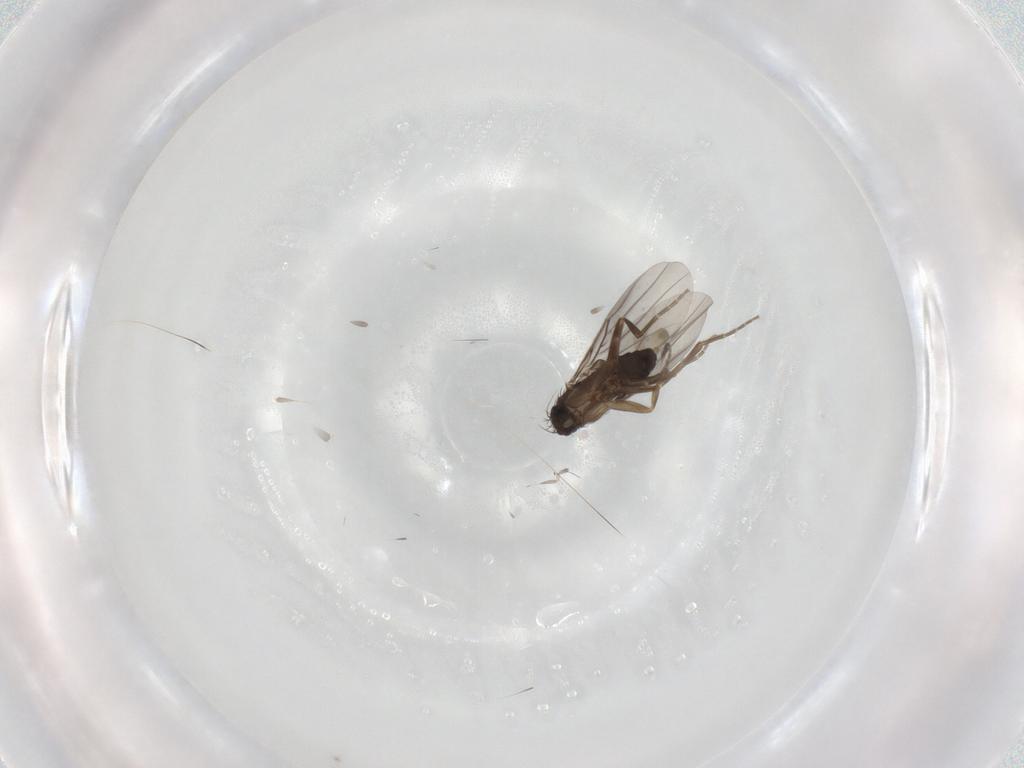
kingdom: Animalia
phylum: Arthropoda
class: Insecta
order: Diptera
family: Phoridae
